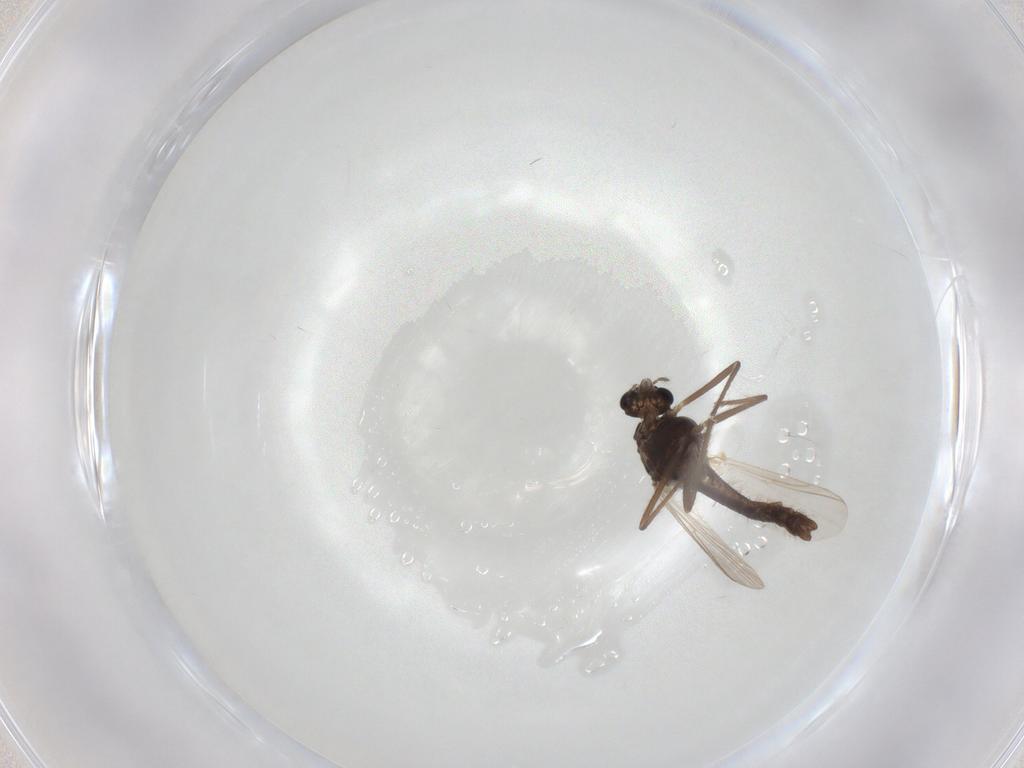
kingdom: Animalia
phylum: Arthropoda
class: Insecta
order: Diptera
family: Chironomidae
